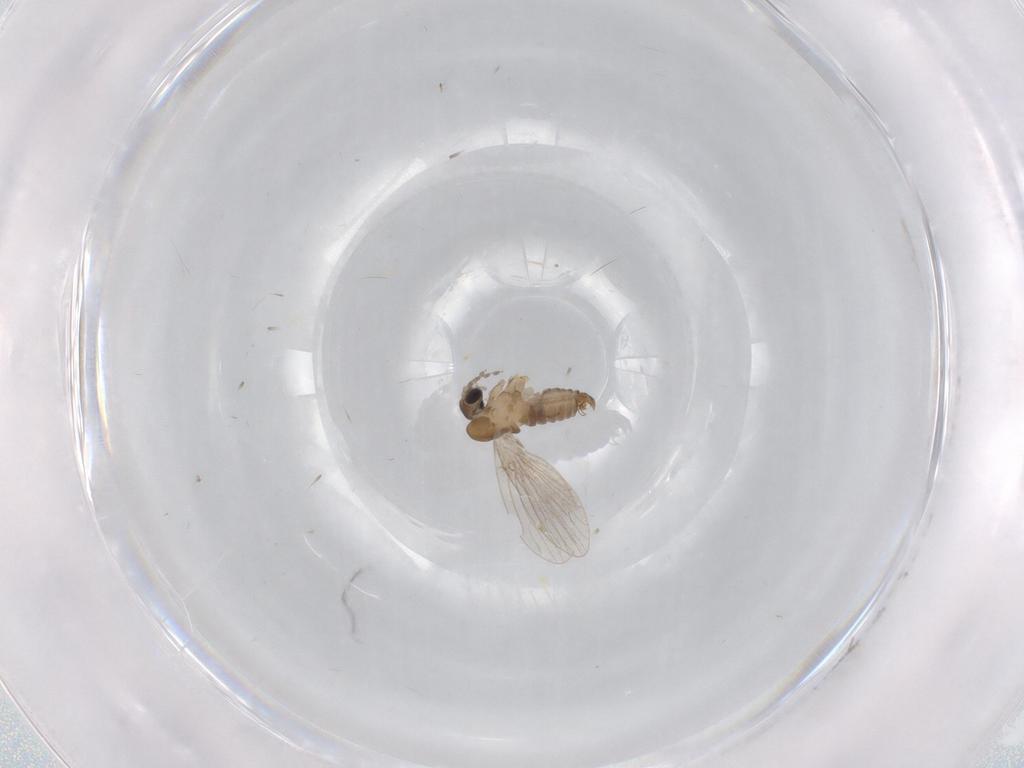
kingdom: Animalia
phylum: Arthropoda
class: Insecta
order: Diptera
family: Psychodidae
